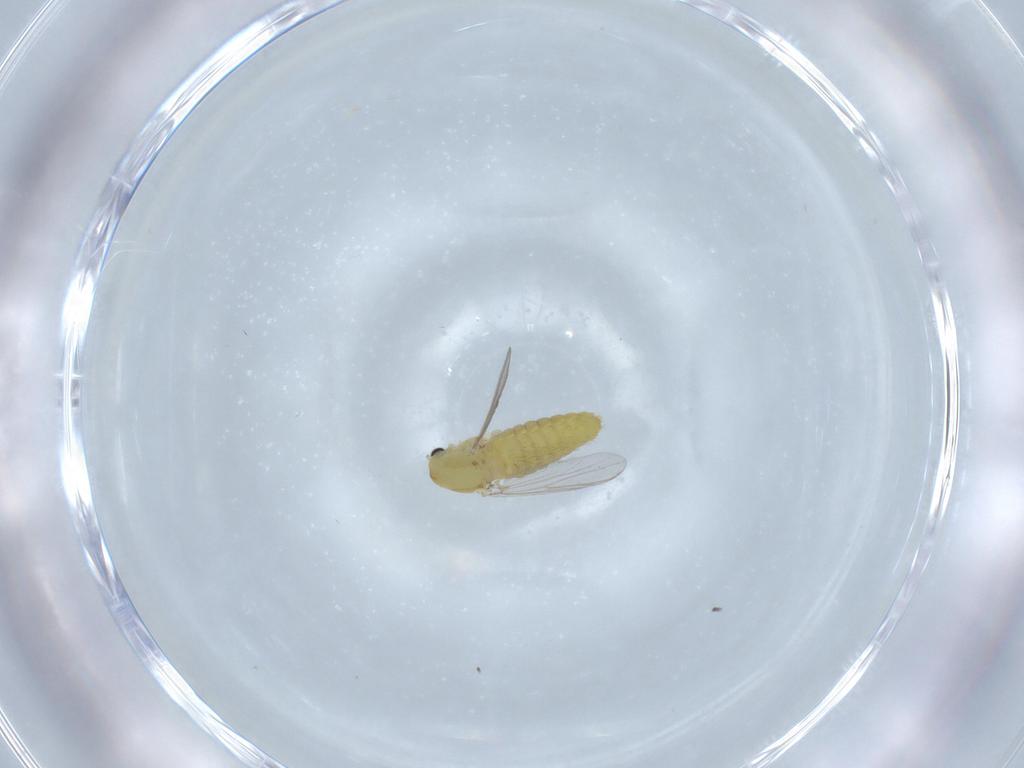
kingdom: Animalia
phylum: Arthropoda
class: Insecta
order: Diptera
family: Chironomidae
